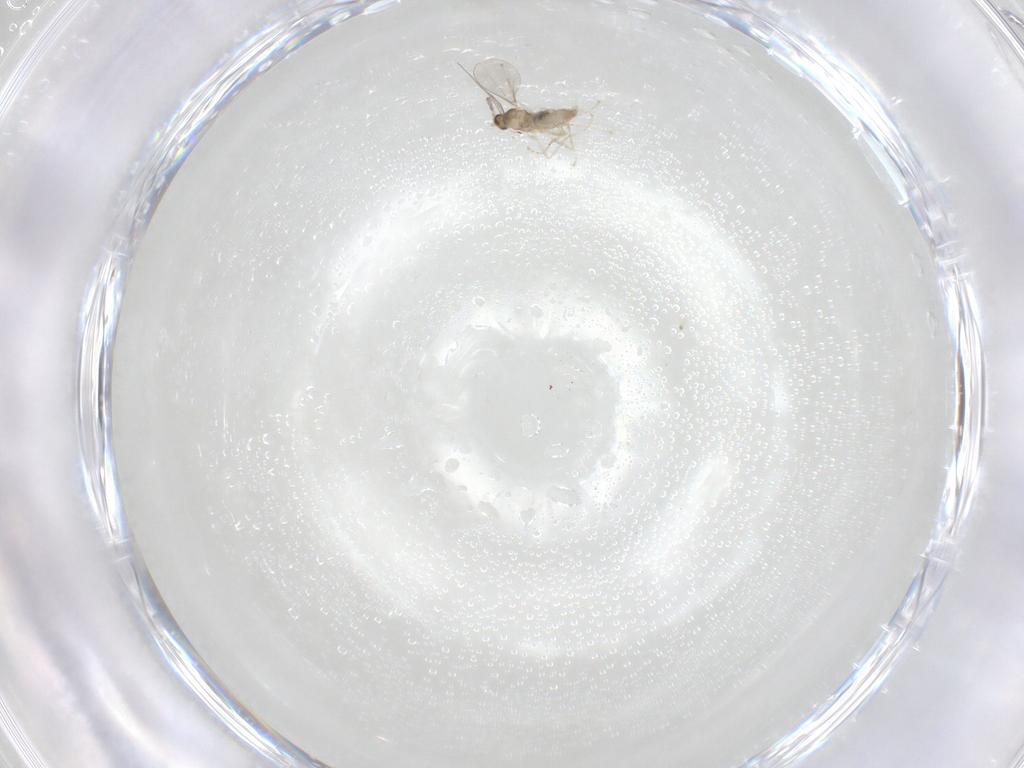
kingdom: Animalia
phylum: Arthropoda
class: Insecta
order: Diptera
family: Cecidomyiidae
